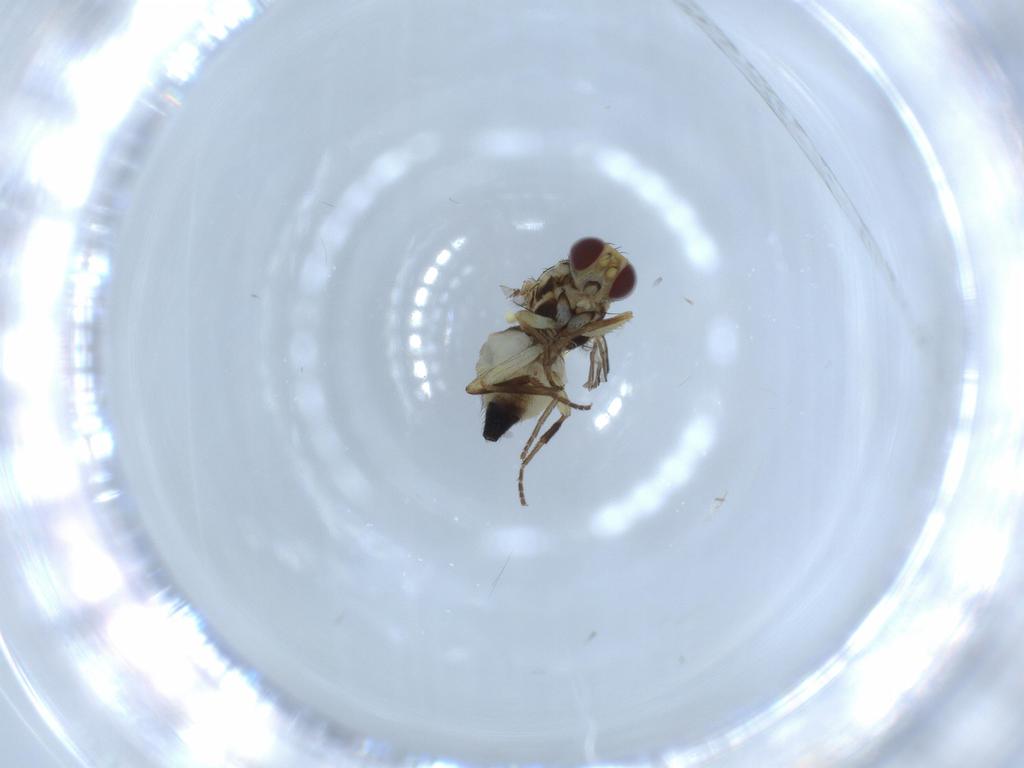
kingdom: Animalia
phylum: Arthropoda
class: Insecta
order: Diptera
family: Agromyzidae
